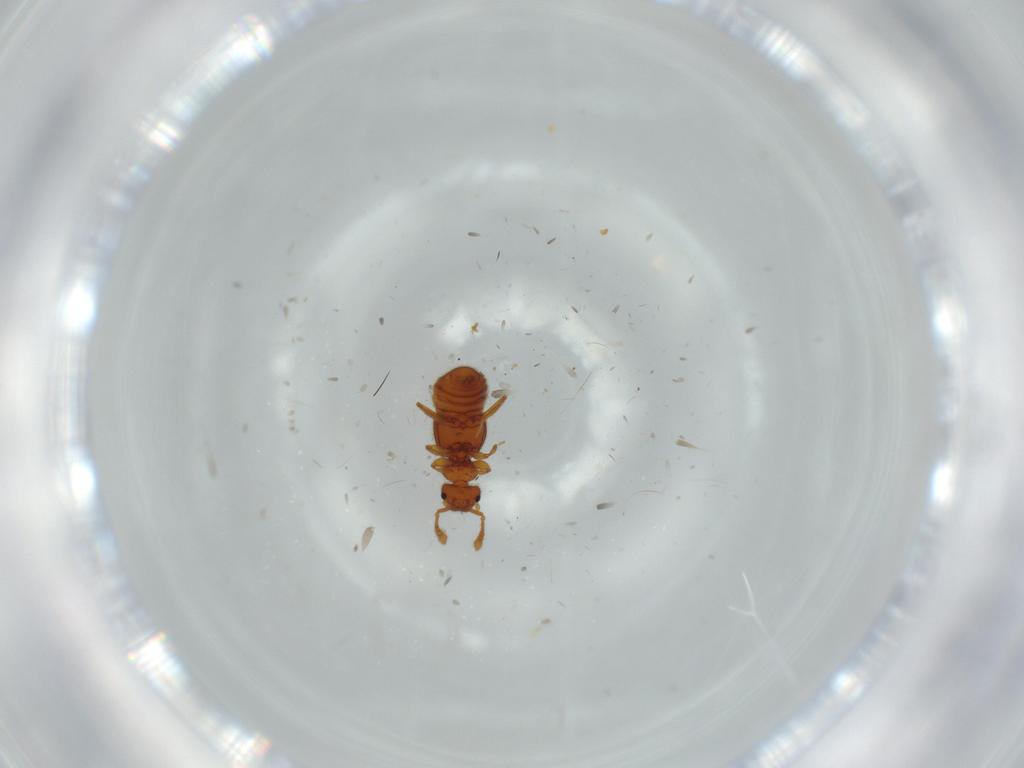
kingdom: Animalia
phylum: Arthropoda
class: Insecta
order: Coleoptera
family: Staphylinidae
